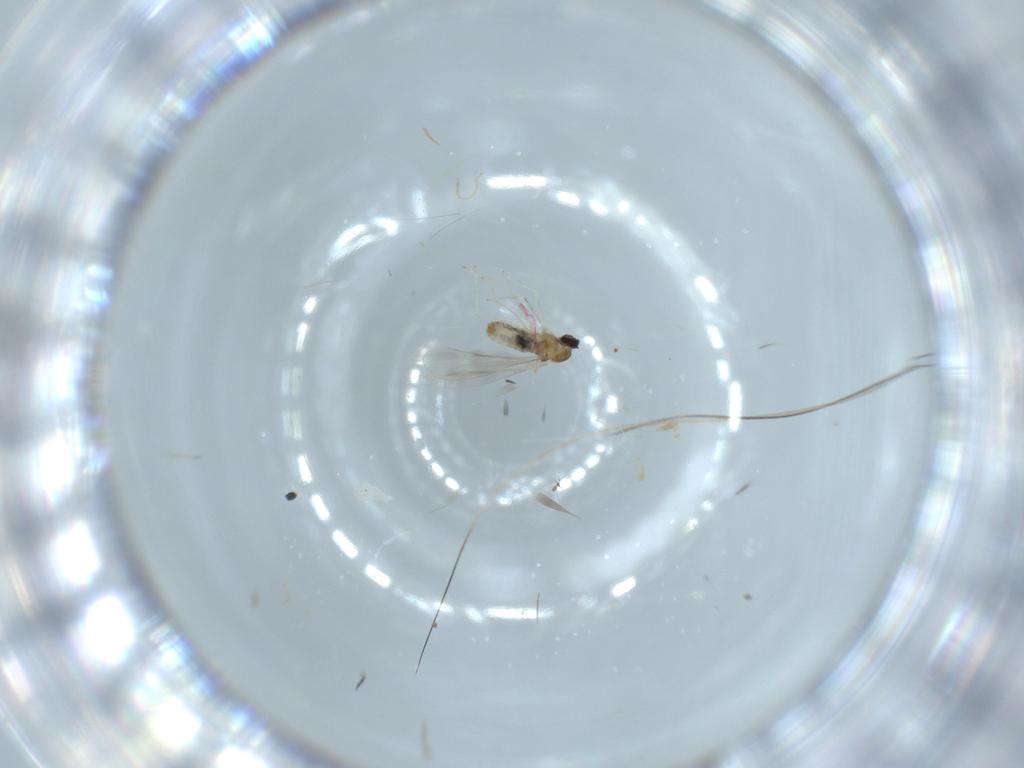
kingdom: Animalia
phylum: Arthropoda
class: Insecta
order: Diptera
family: Cecidomyiidae
